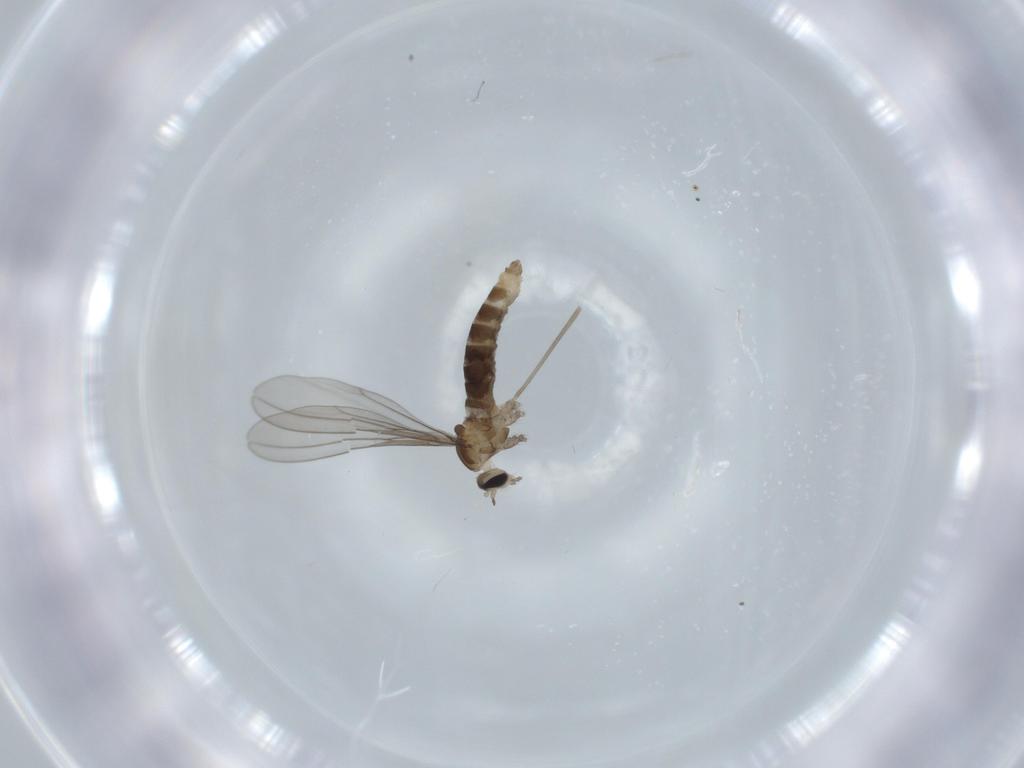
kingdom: Animalia
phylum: Arthropoda
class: Insecta
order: Diptera
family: Cecidomyiidae
